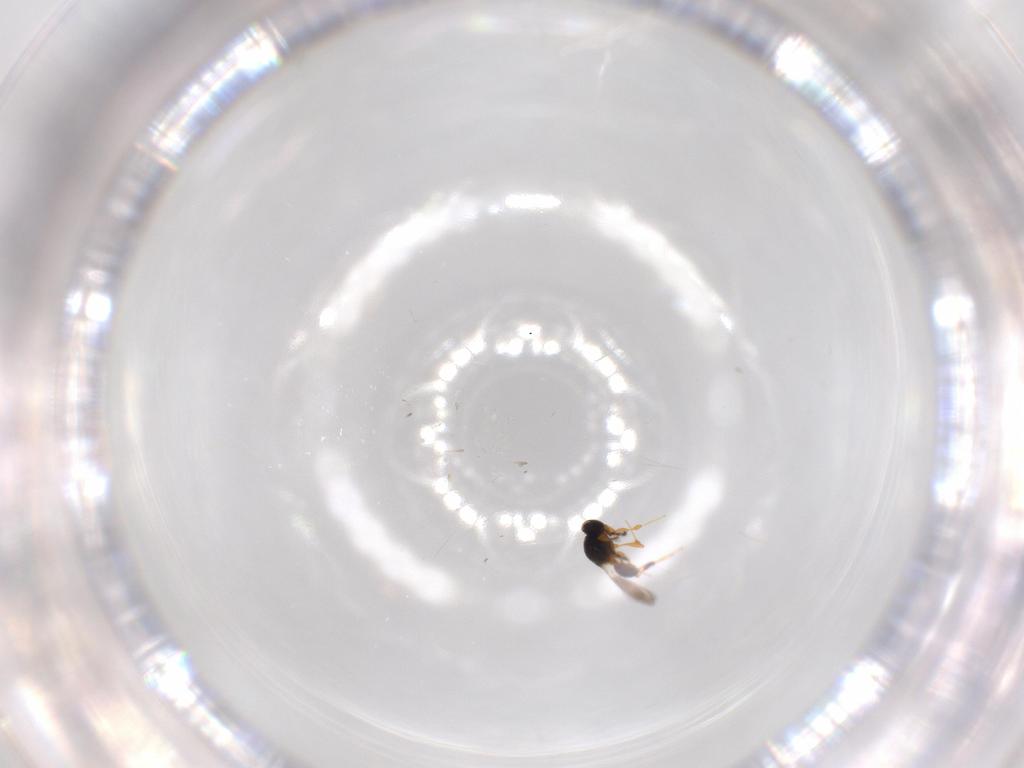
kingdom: Animalia
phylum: Arthropoda
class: Insecta
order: Hymenoptera
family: Platygastridae
